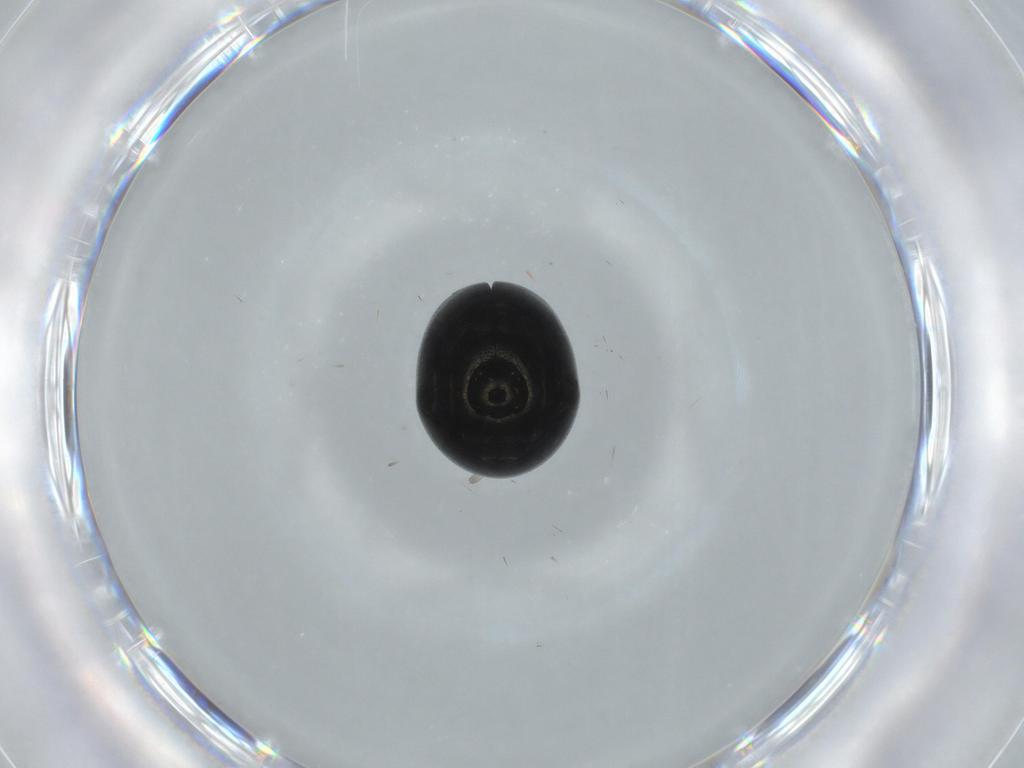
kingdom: Animalia
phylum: Arthropoda
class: Insecta
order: Coleoptera
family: Cybocephalidae
